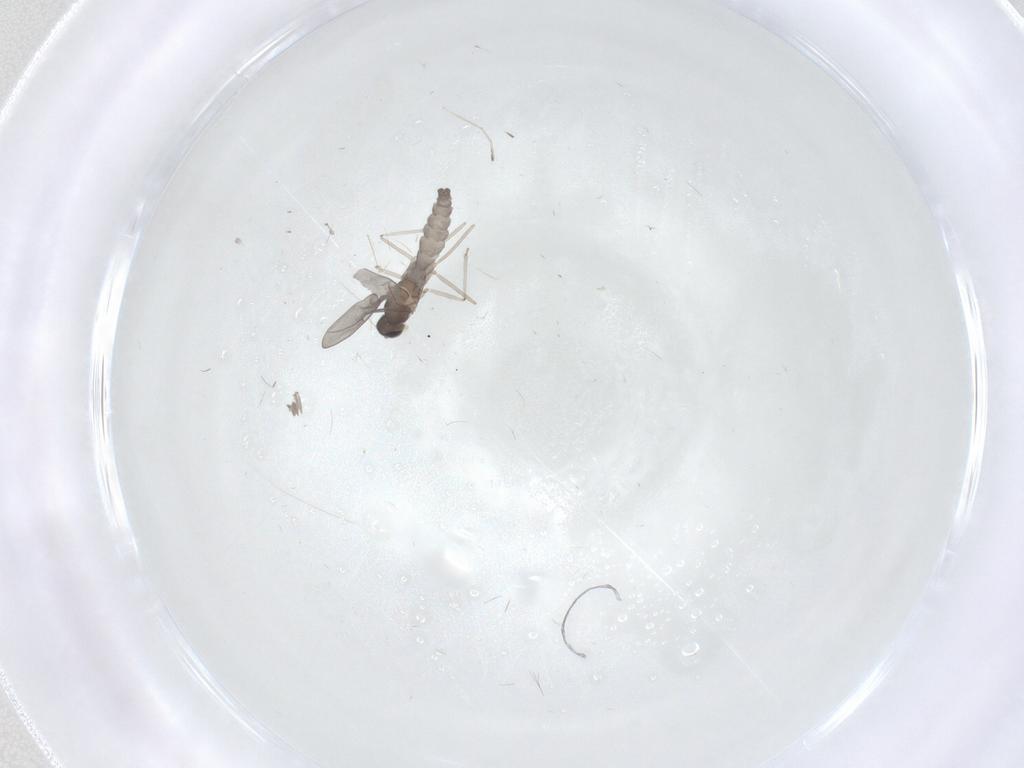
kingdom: Animalia
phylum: Arthropoda
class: Insecta
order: Diptera
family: Cecidomyiidae
